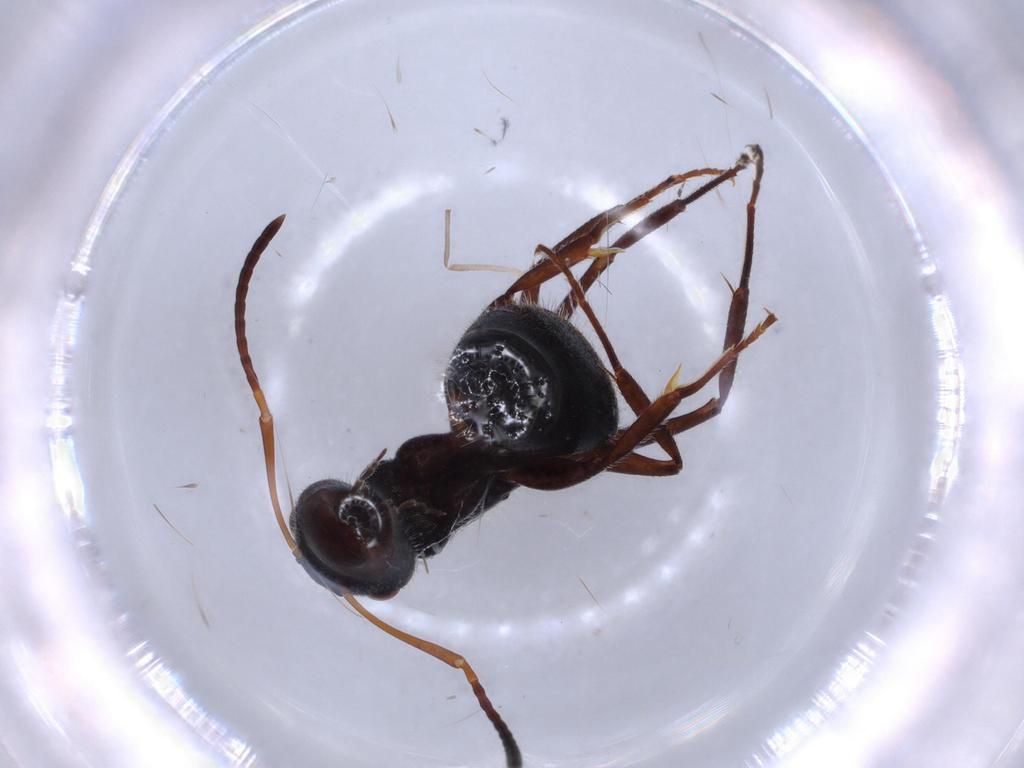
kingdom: Animalia
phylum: Arthropoda
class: Insecta
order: Hymenoptera
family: Formicidae
